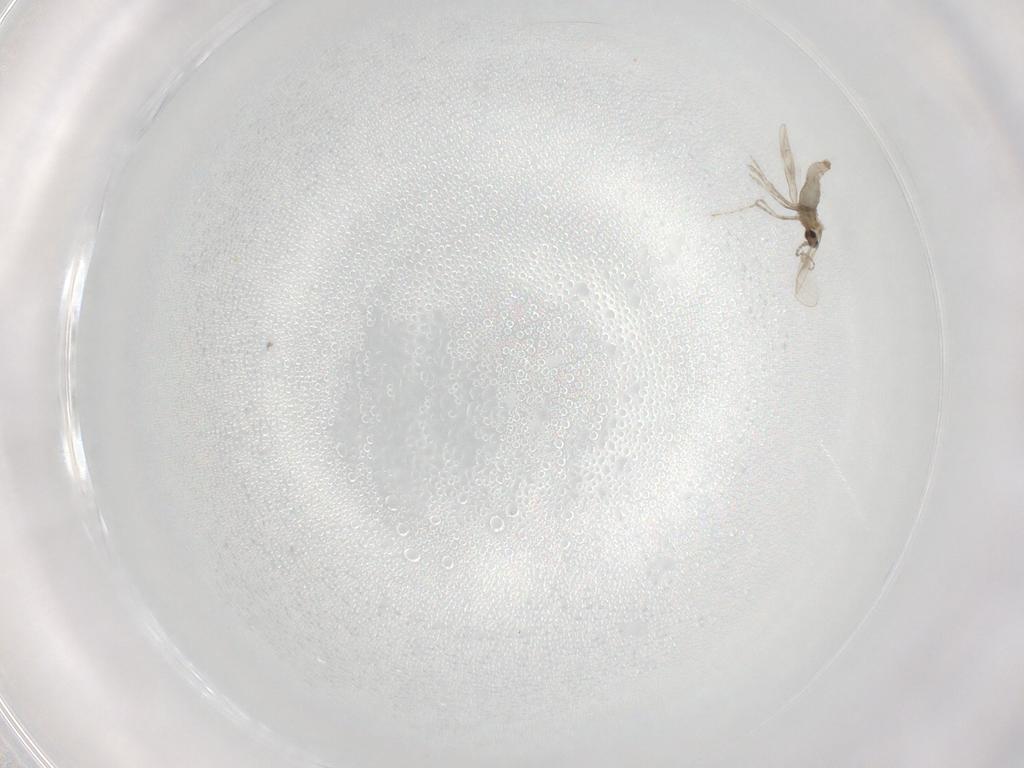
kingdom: Animalia
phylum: Arthropoda
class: Insecta
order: Diptera
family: Cecidomyiidae
